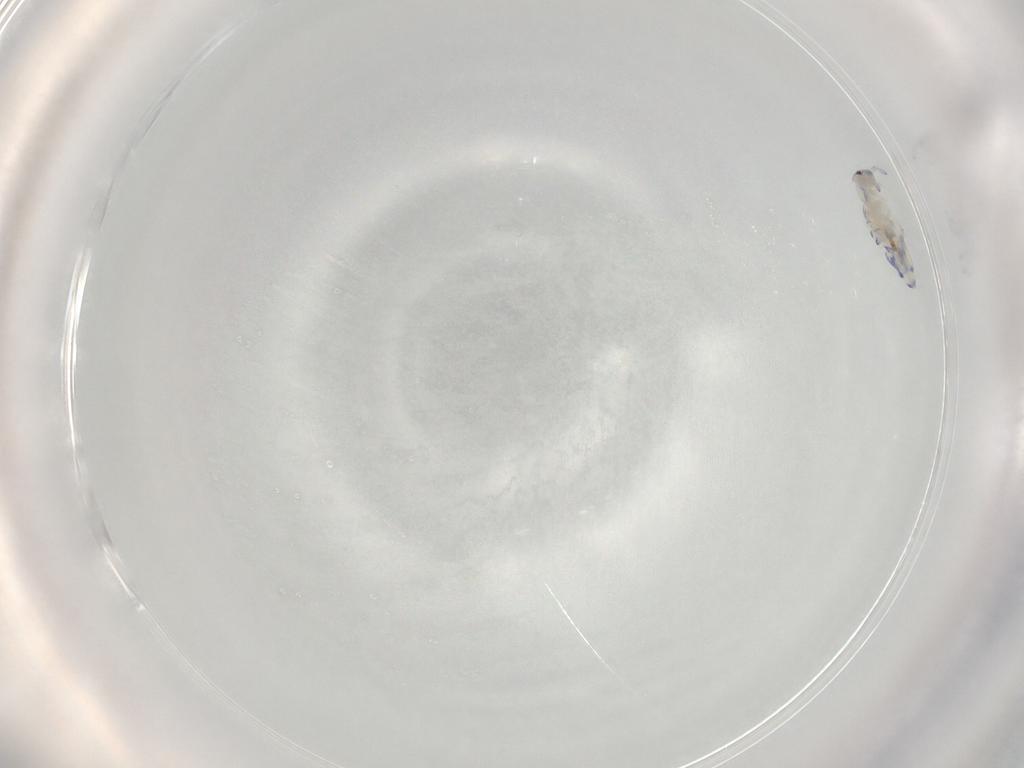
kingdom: Animalia
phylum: Arthropoda
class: Collembola
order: Entomobryomorpha
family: Entomobryidae
